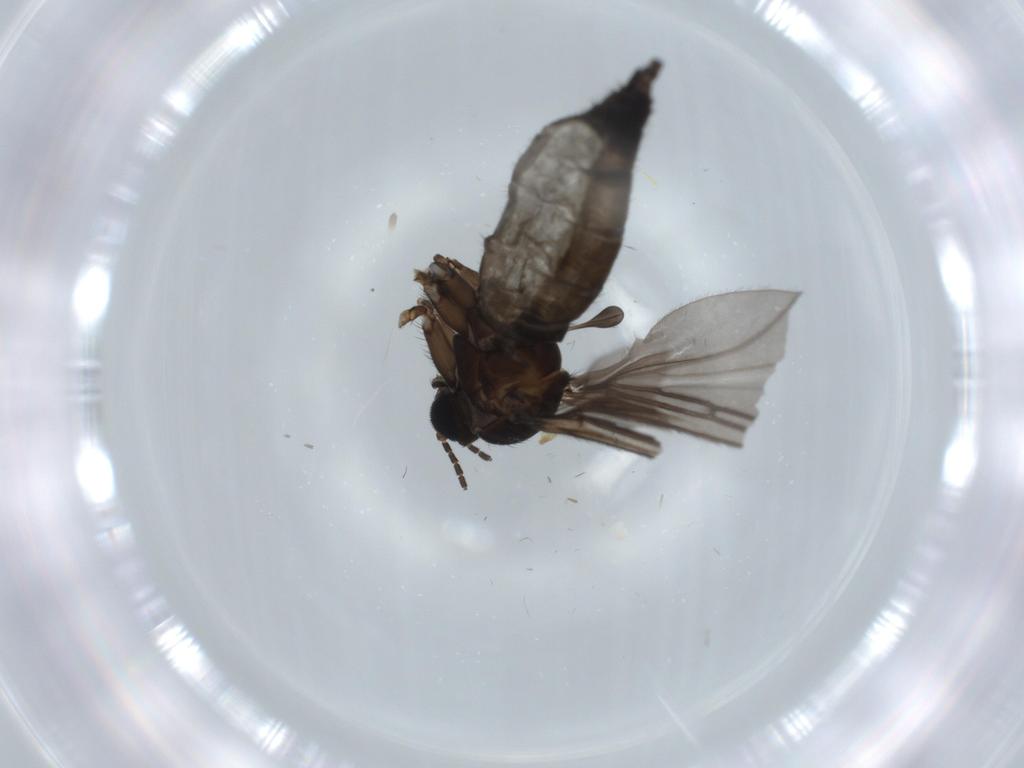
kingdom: Animalia
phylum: Arthropoda
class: Insecta
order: Diptera
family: Sciaridae
